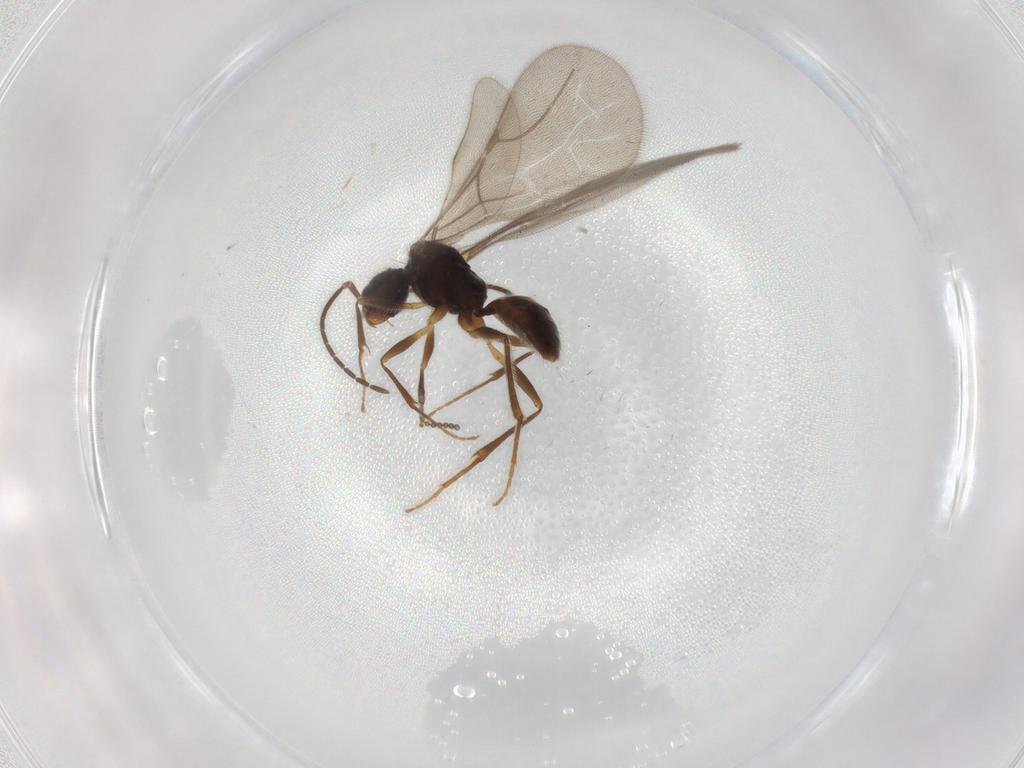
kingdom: Animalia
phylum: Arthropoda
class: Insecta
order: Hymenoptera
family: Bethylidae
